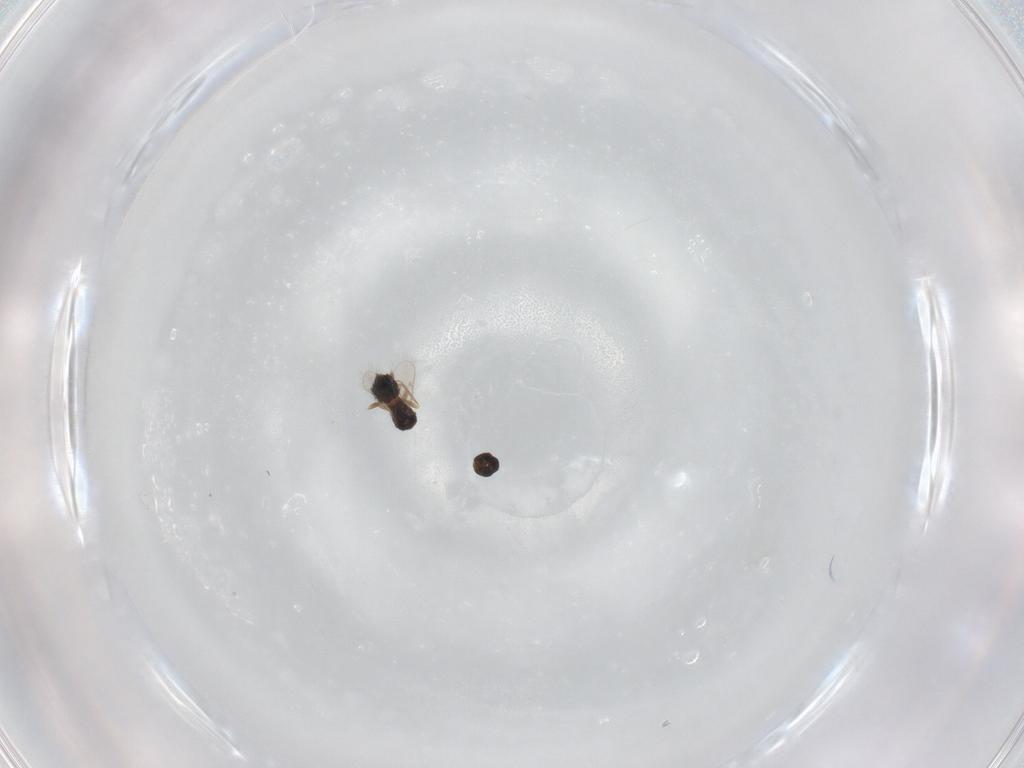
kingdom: Animalia
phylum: Arthropoda
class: Insecta
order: Hymenoptera
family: Tetracampidae
